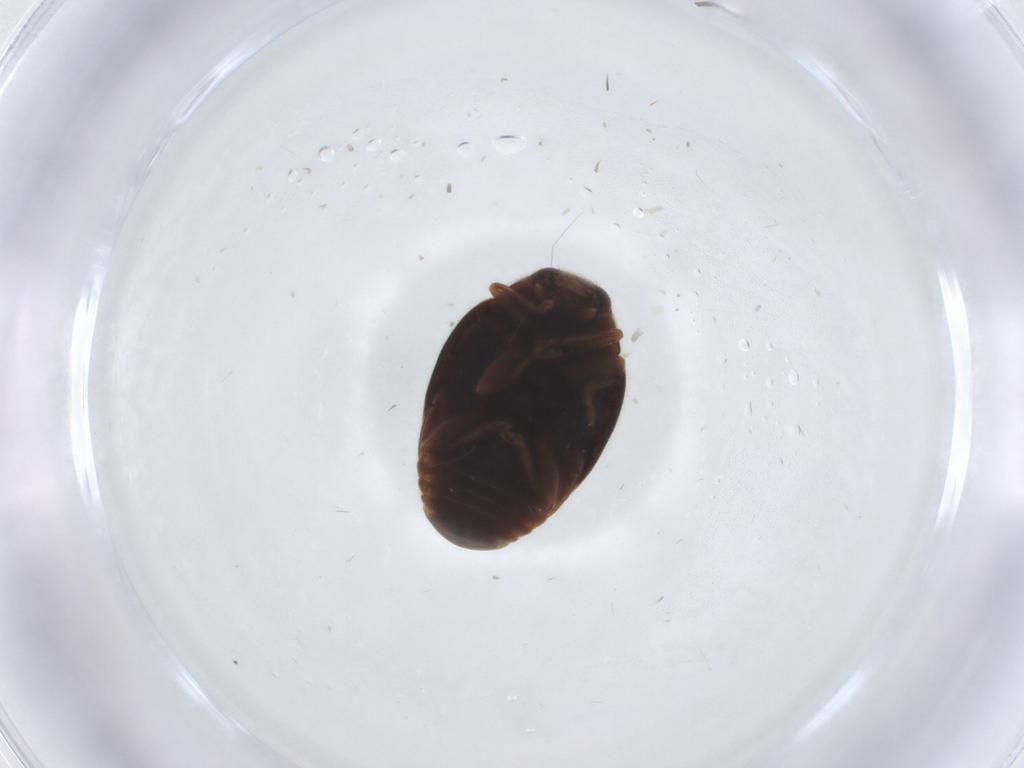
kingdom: Animalia
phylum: Arthropoda
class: Insecta
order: Coleoptera
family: Coccinellidae
